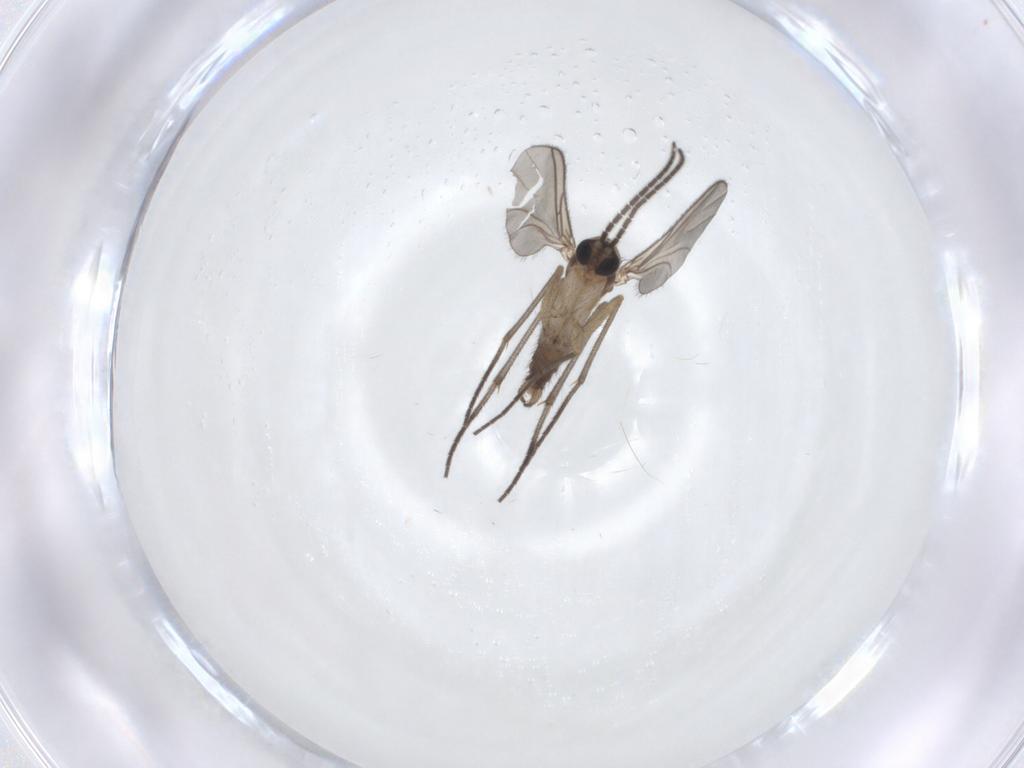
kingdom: Animalia
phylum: Arthropoda
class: Insecta
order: Diptera
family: Sciaridae
